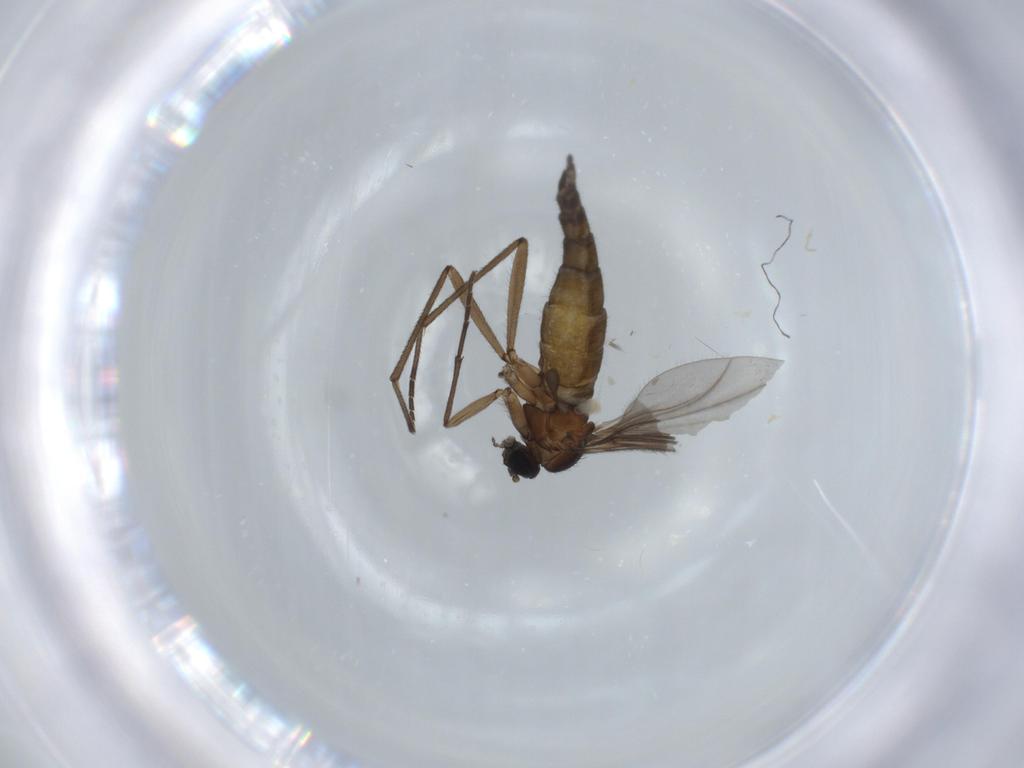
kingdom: Animalia
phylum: Arthropoda
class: Insecta
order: Diptera
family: Sciaridae
